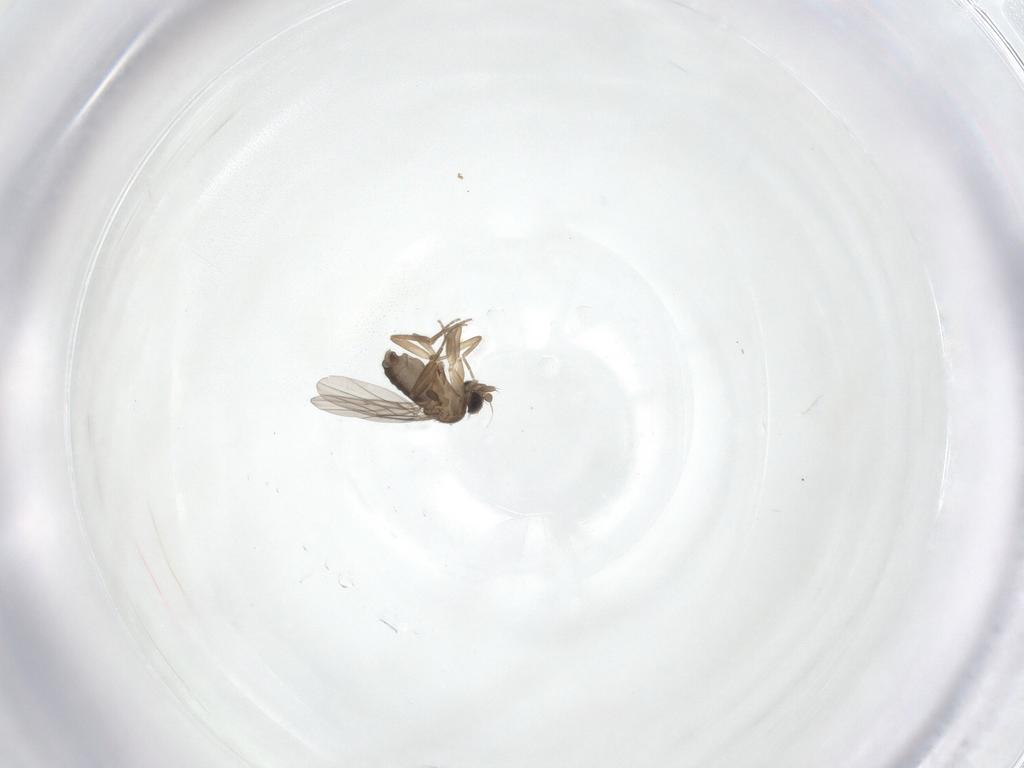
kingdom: Animalia
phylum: Arthropoda
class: Insecta
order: Diptera
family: Phoridae
